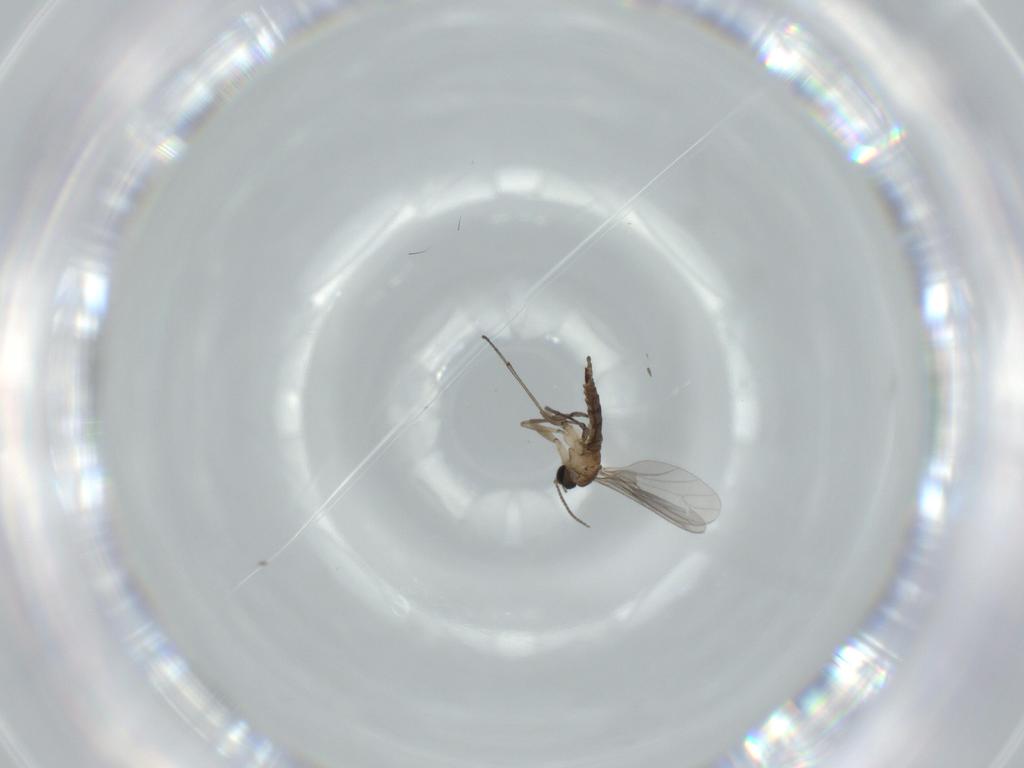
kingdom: Animalia
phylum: Arthropoda
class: Insecta
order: Diptera
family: Sciaridae
